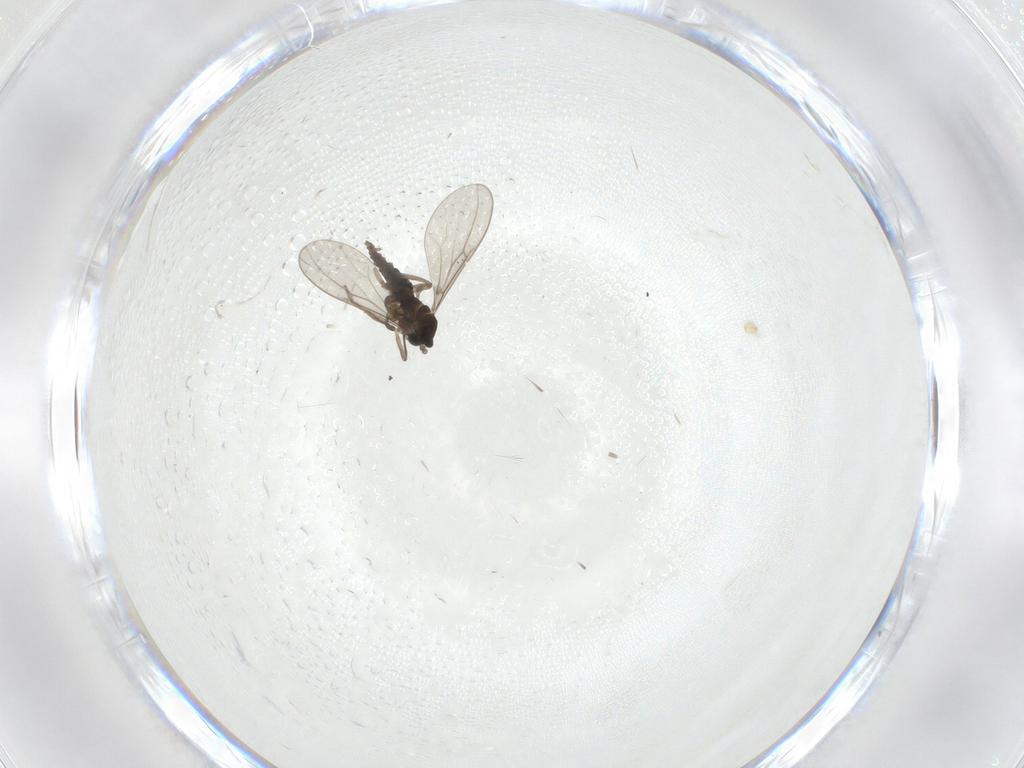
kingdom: Animalia
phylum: Arthropoda
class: Insecta
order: Diptera
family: Cecidomyiidae
